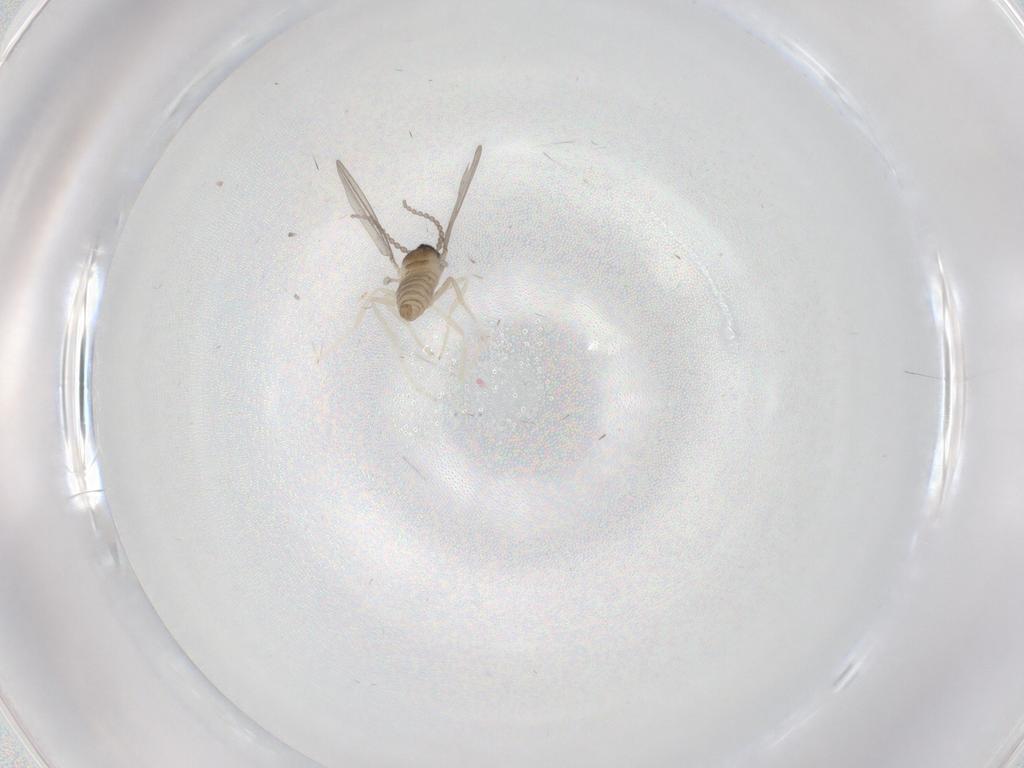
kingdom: Animalia
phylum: Arthropoda
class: Insecta
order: Diptera
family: Cecidomyiidae
